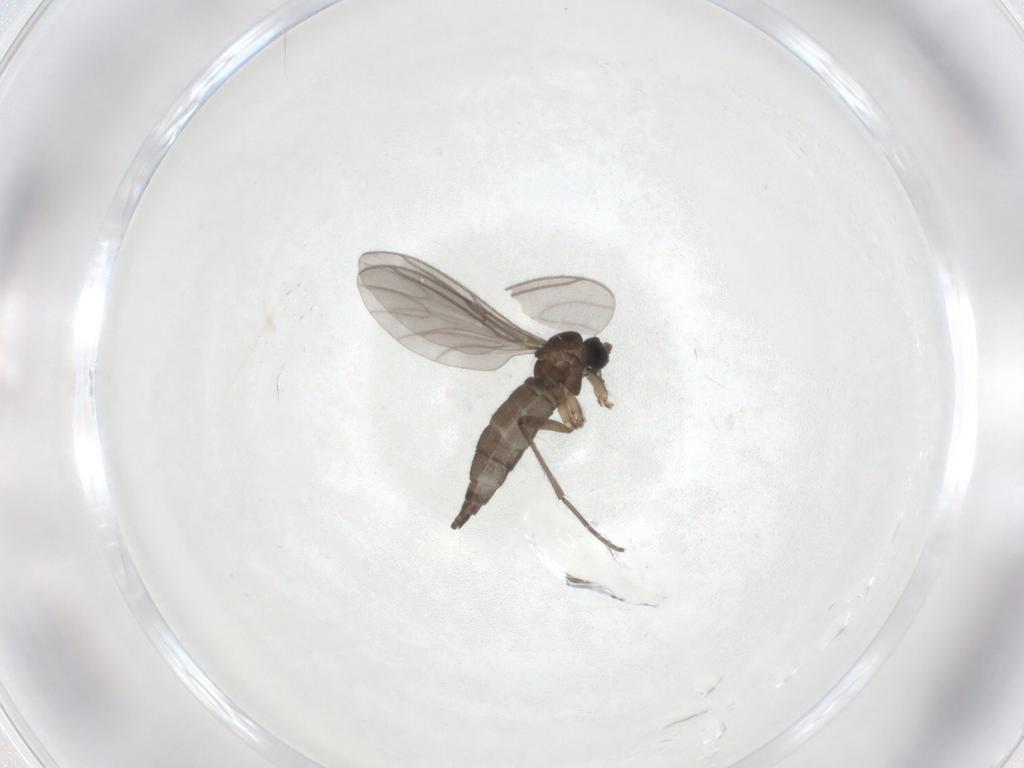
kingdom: Animalia
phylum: Arthropoda
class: Insecta
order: Diptera
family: Sciaridae
